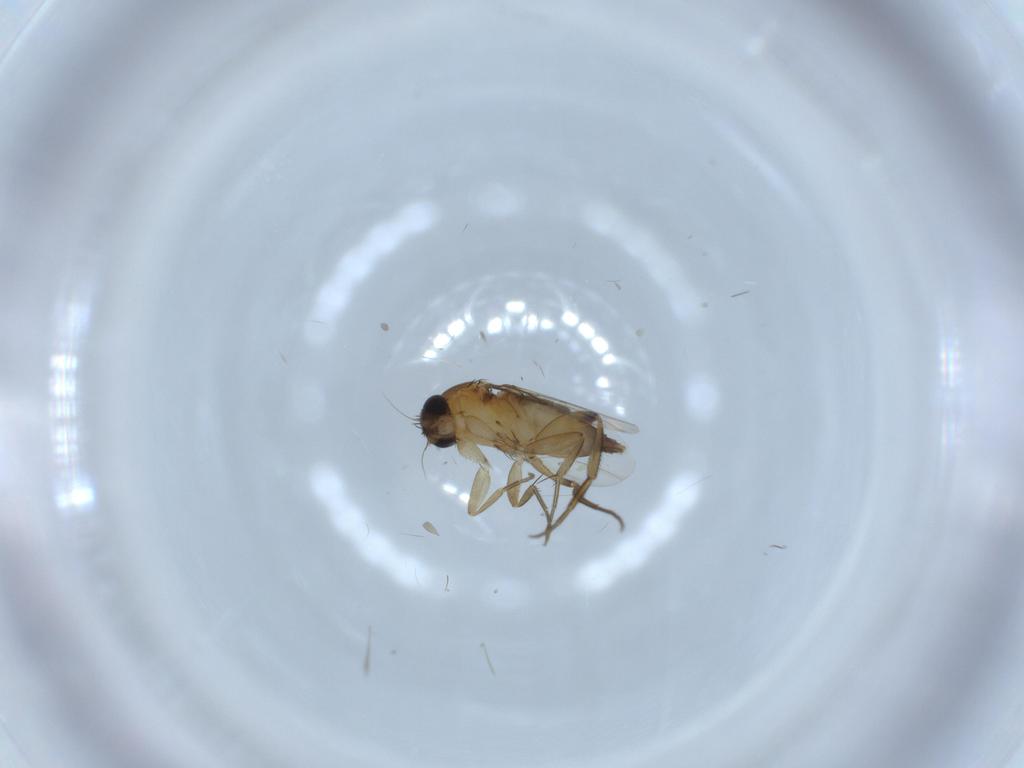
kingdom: Animalia
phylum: Arthropoda
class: Insecta
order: Diptera
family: Phoridae
